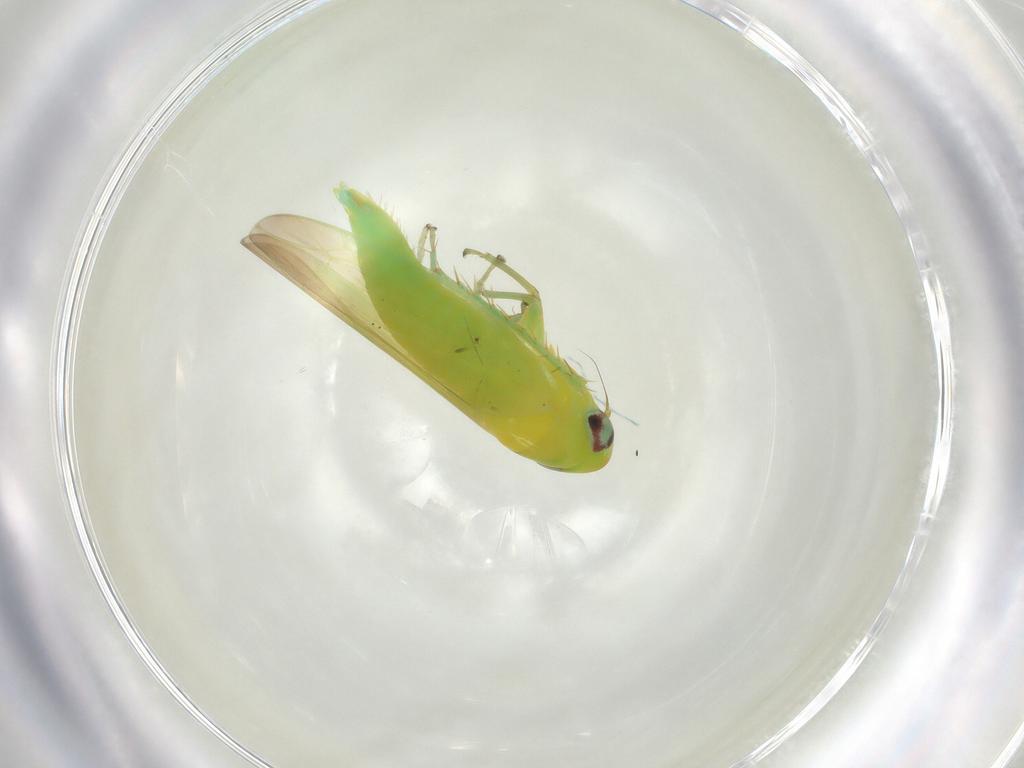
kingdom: Animalia
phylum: Arthropoda
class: Insecta
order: Hemiptera
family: Cicadellidae
